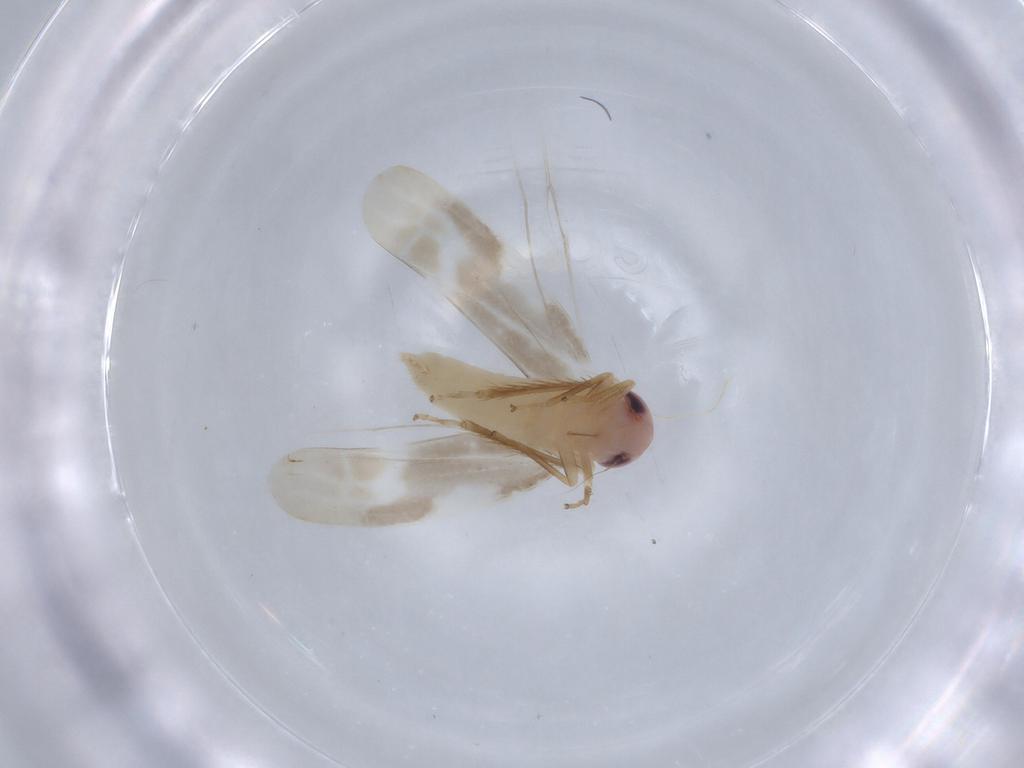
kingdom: Animalia
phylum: Arthropoda
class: Insecta
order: Hemiptera
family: Cicadellidae
